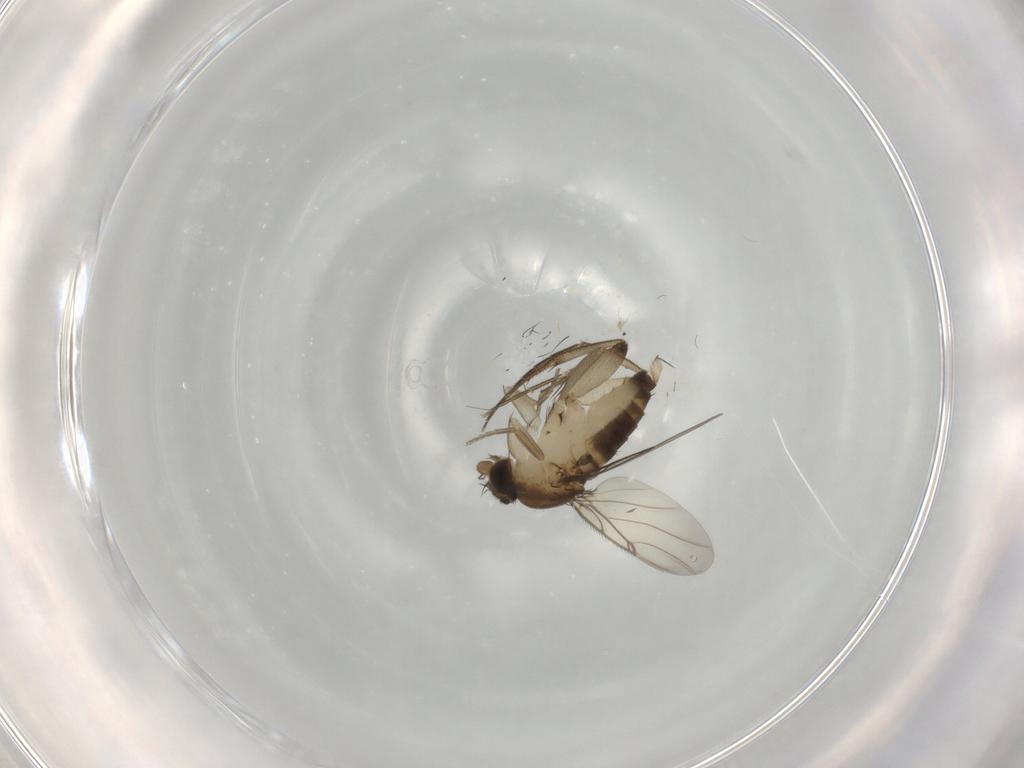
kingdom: Animalia
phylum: Arthropoda
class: Insecta
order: Diptera
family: Phoridae
